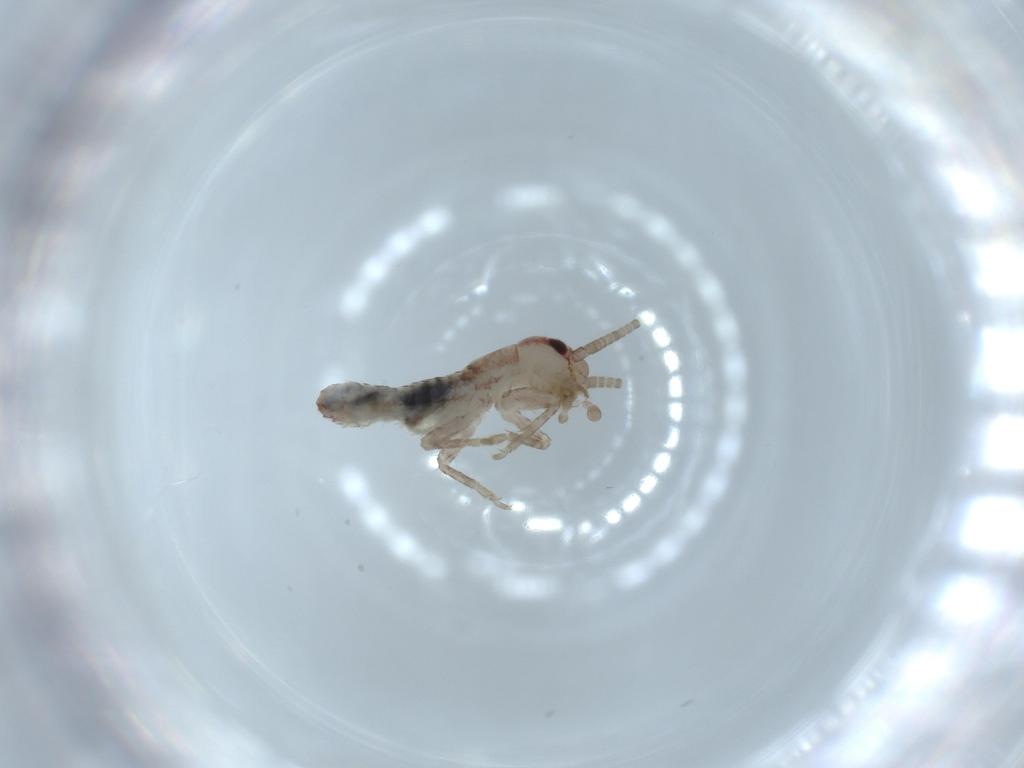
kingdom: Animalia
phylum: Arthropoda
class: Insecta
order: Orthoptera
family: Mogoplistidae
